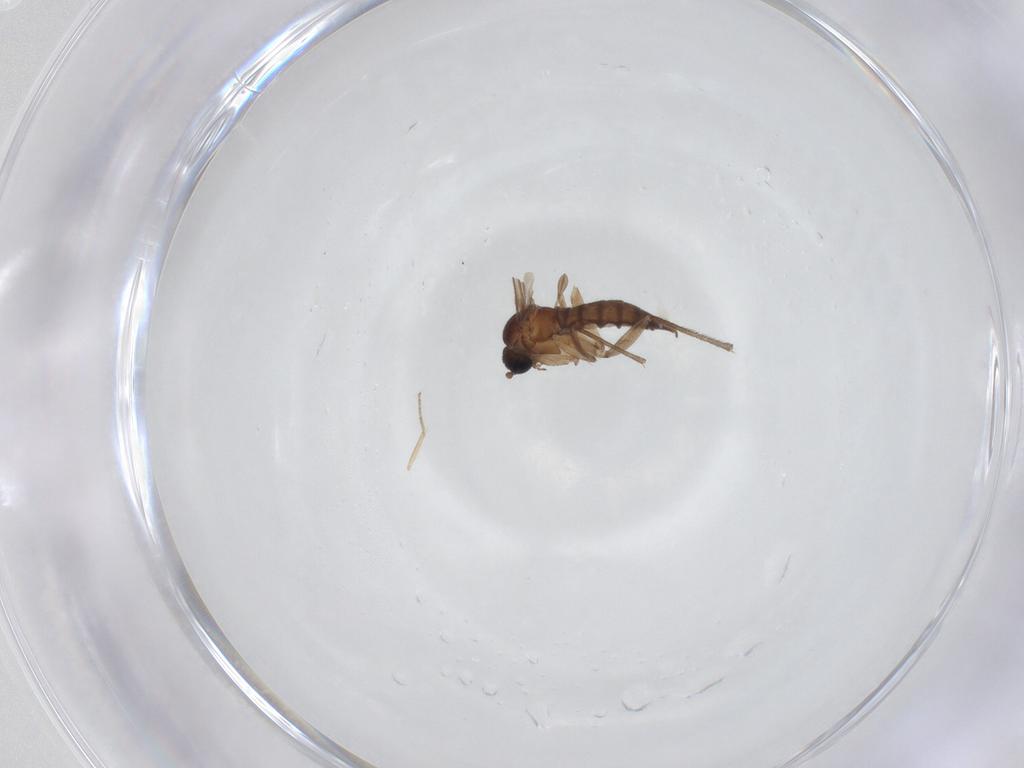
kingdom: Animalia
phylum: Arthropoda
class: Insecta
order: Diptera
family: Sciaridae
